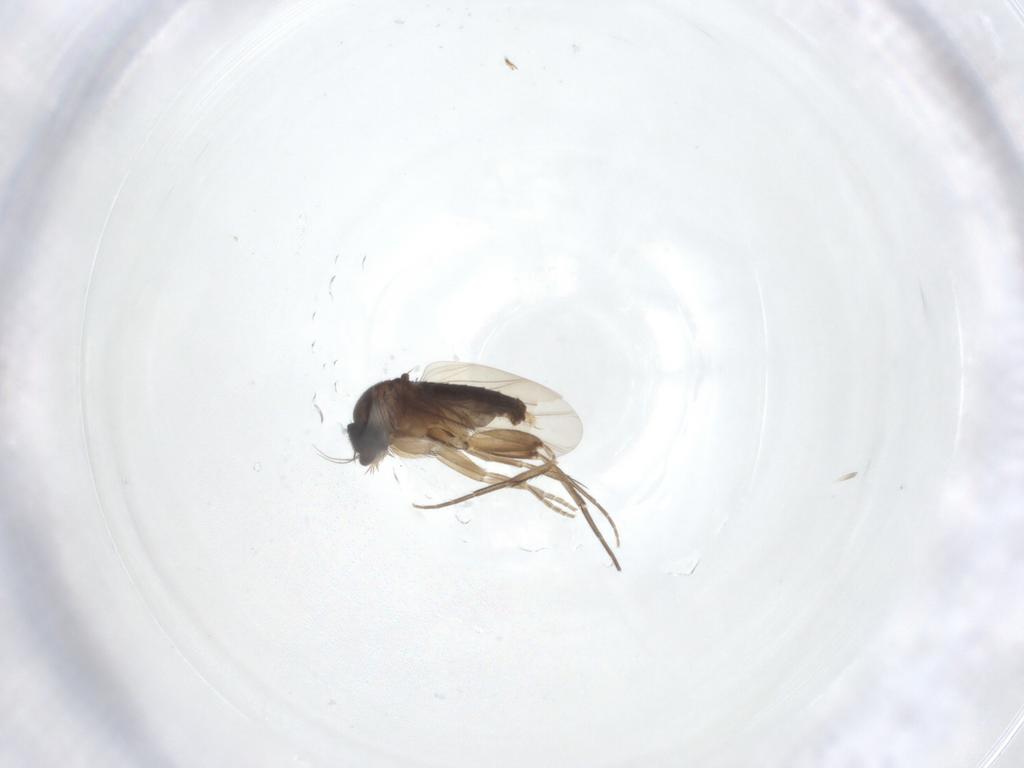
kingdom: Animalia
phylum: Arthropoda
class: Insecta
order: Diptera
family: Phoridae
